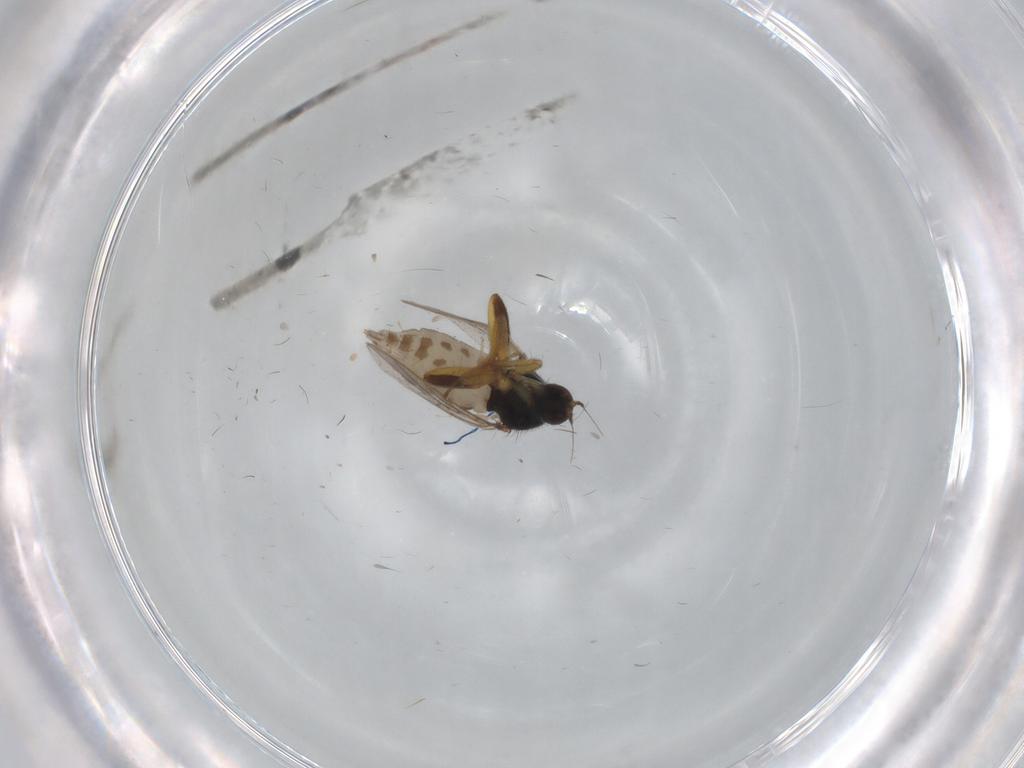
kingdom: Animalia
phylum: Arthropoda
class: Insecta
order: Diptera
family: Hybotidae
